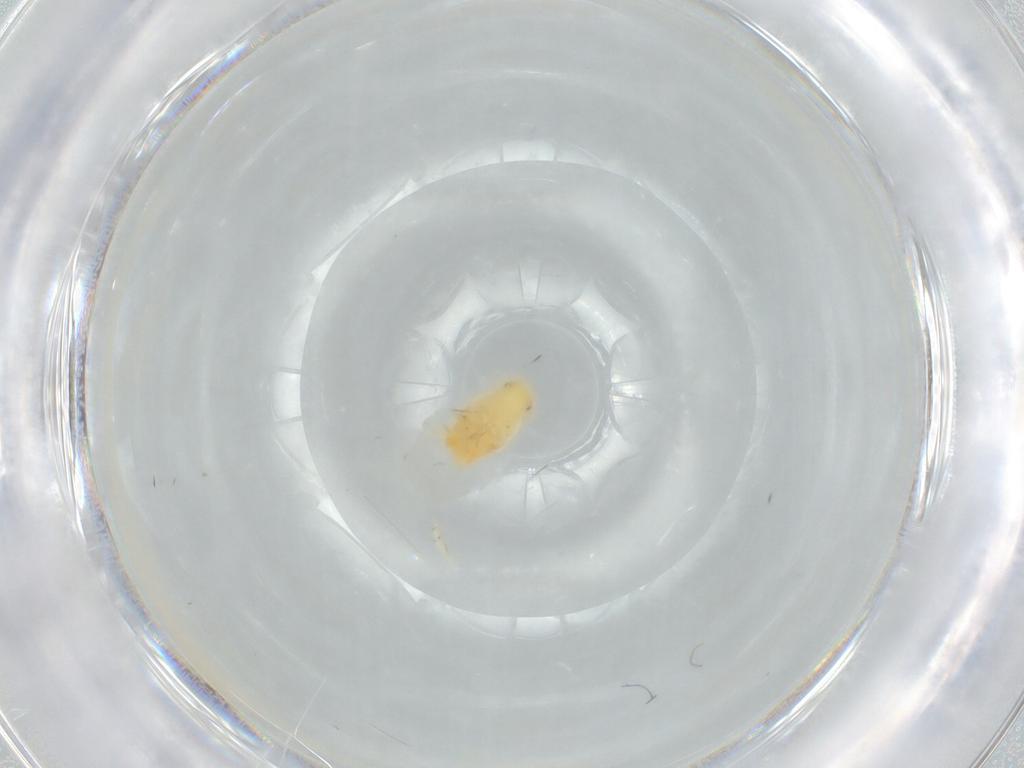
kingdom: Animalia
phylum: Arthropoda
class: Insecta
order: Hemiptera
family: Flatidae
